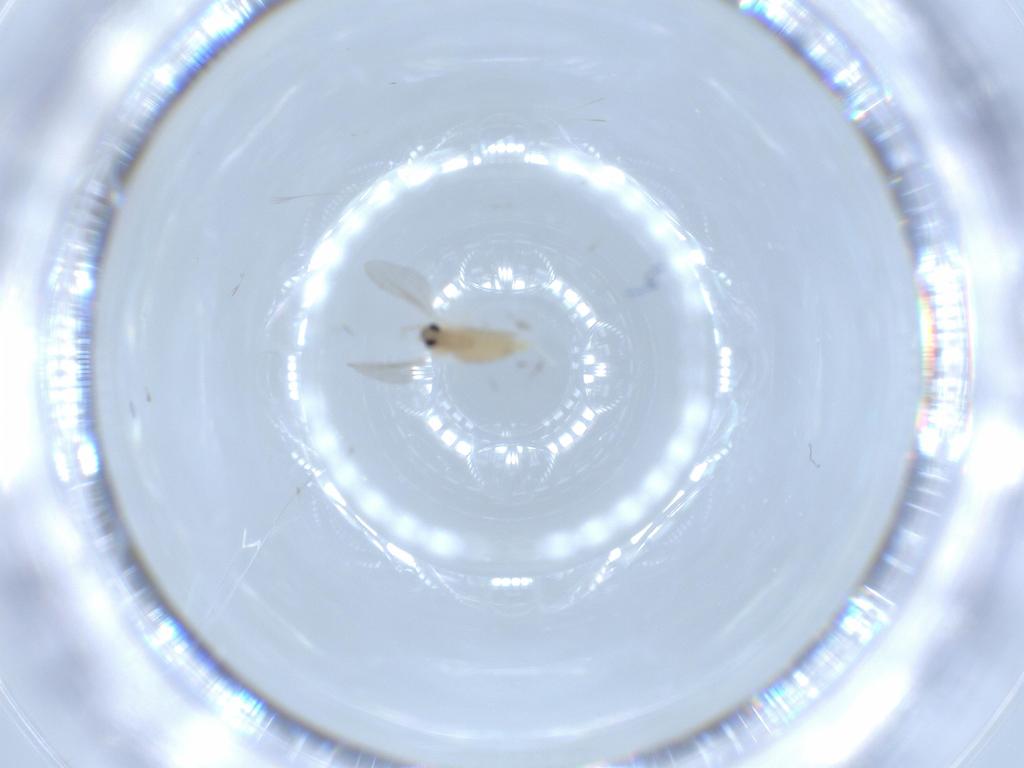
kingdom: Animalia
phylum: Arthropoda
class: Insecta
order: Diptera
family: Cecidomyiidae
